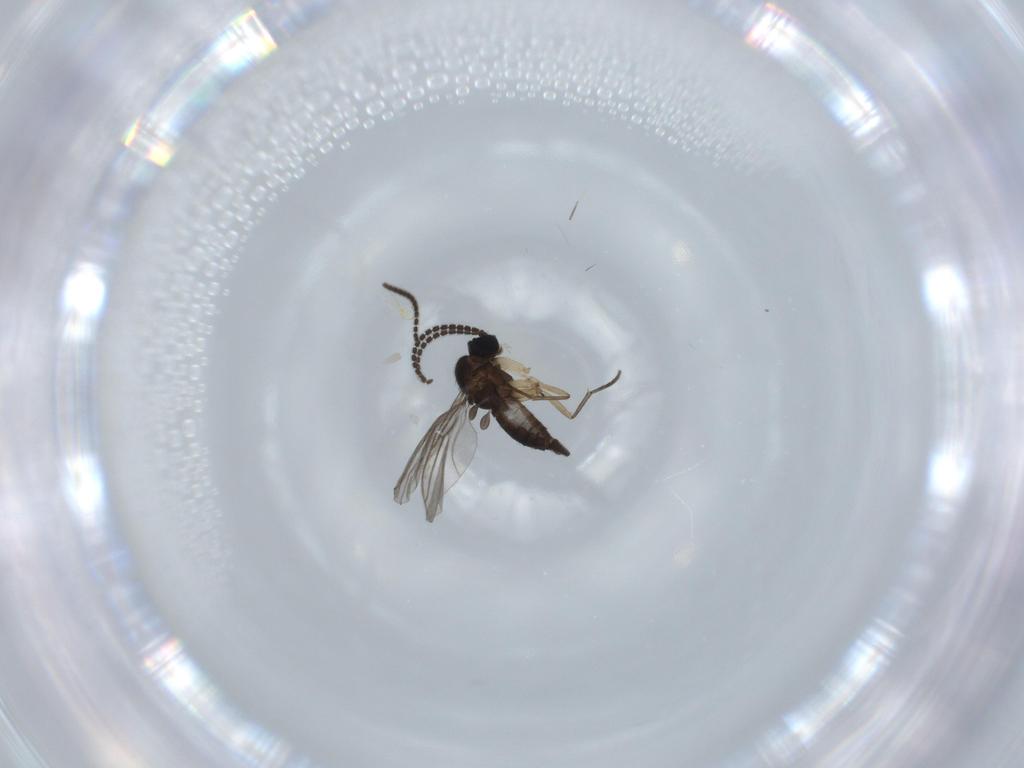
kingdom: Animalia
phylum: Arthropoda
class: Insecta
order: Diptera
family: Sciaridae
